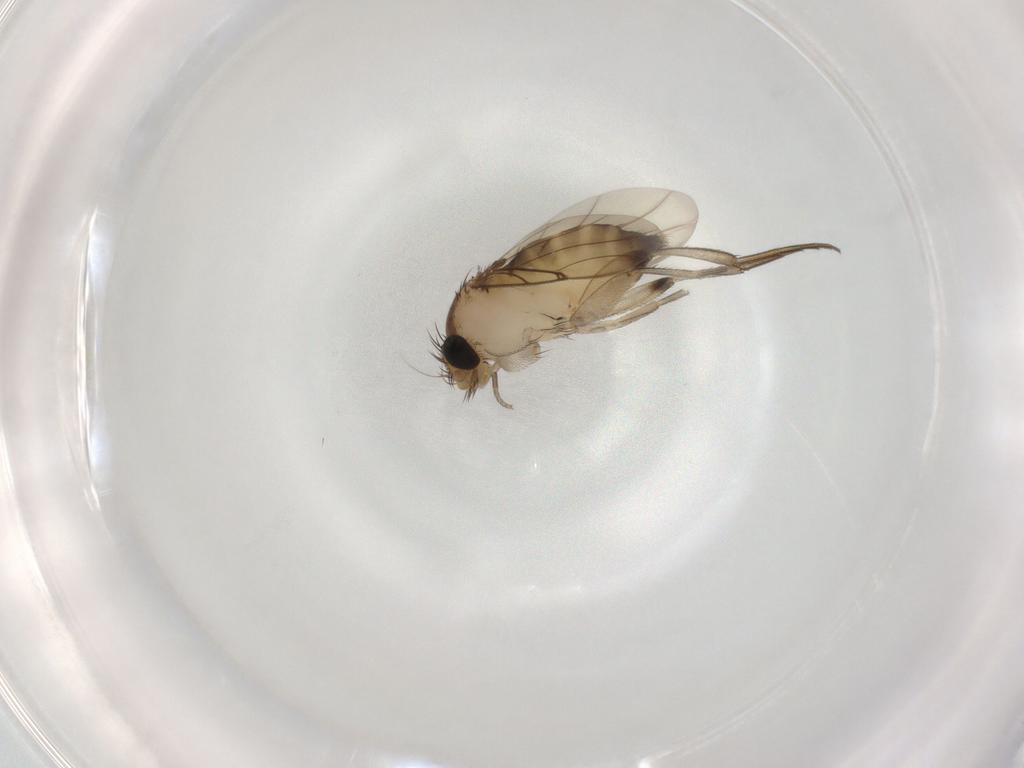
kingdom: Animalia
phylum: Arthropoda
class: Insecta
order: Diptera
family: Phoridae
